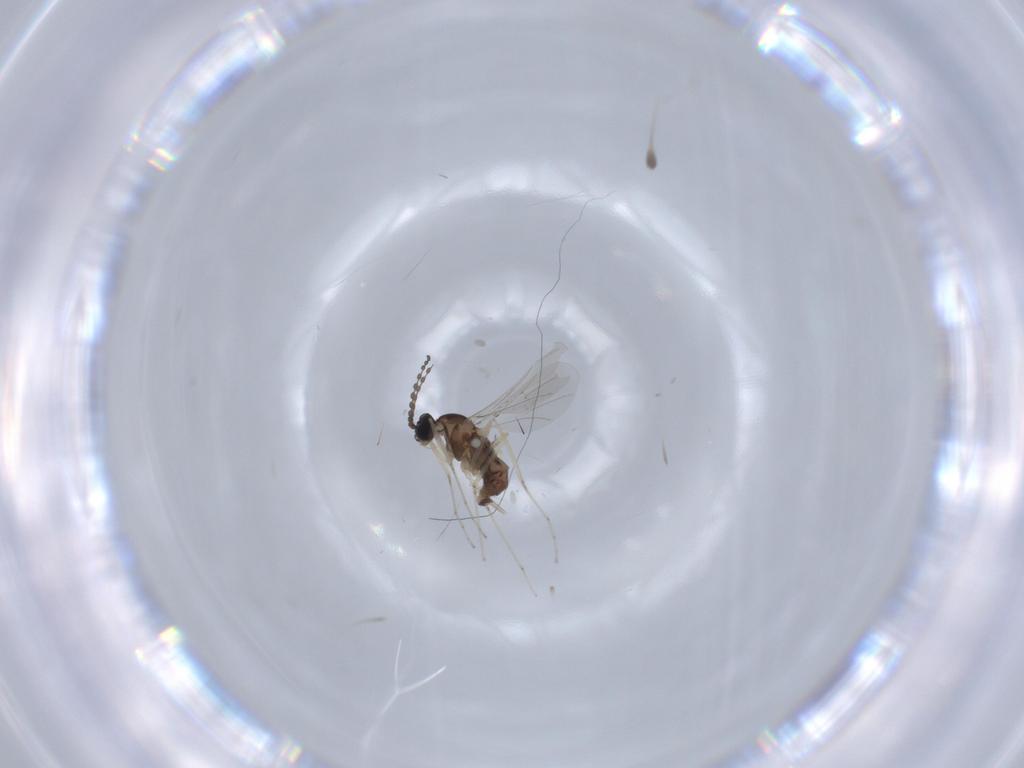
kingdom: Animalia
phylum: Arthropoda
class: Insecta
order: Diptera
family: Cecidomyiidae
